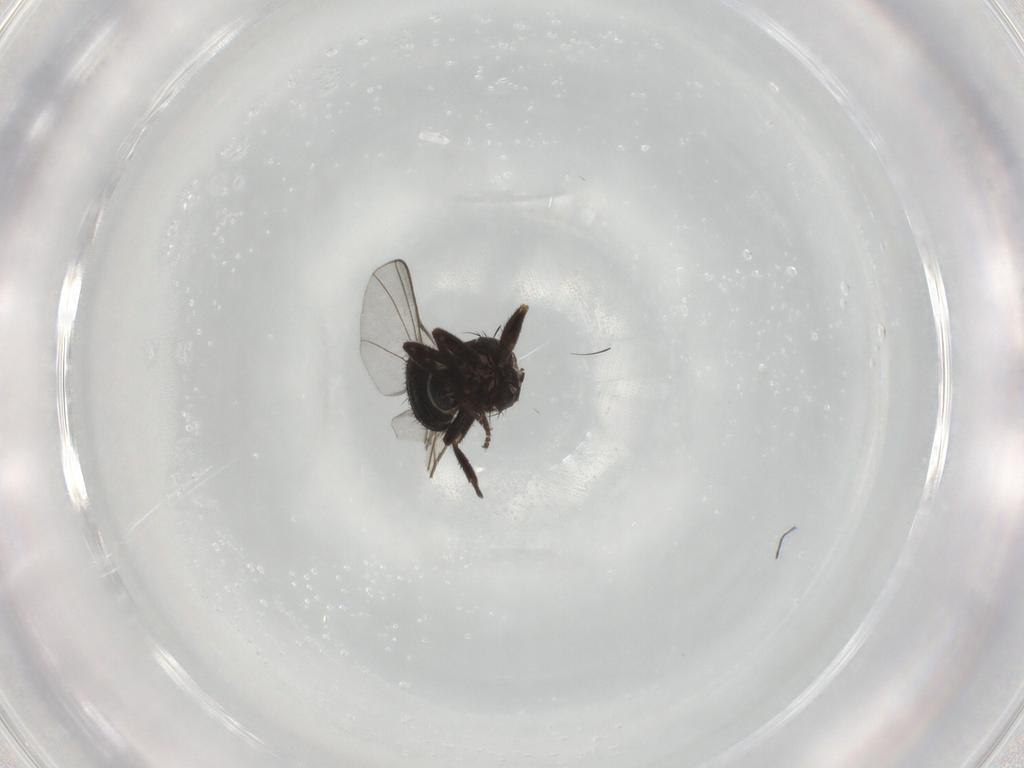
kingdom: Animalia
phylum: Arthropoda
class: Insecta
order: Diptera
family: Agromyzidae
